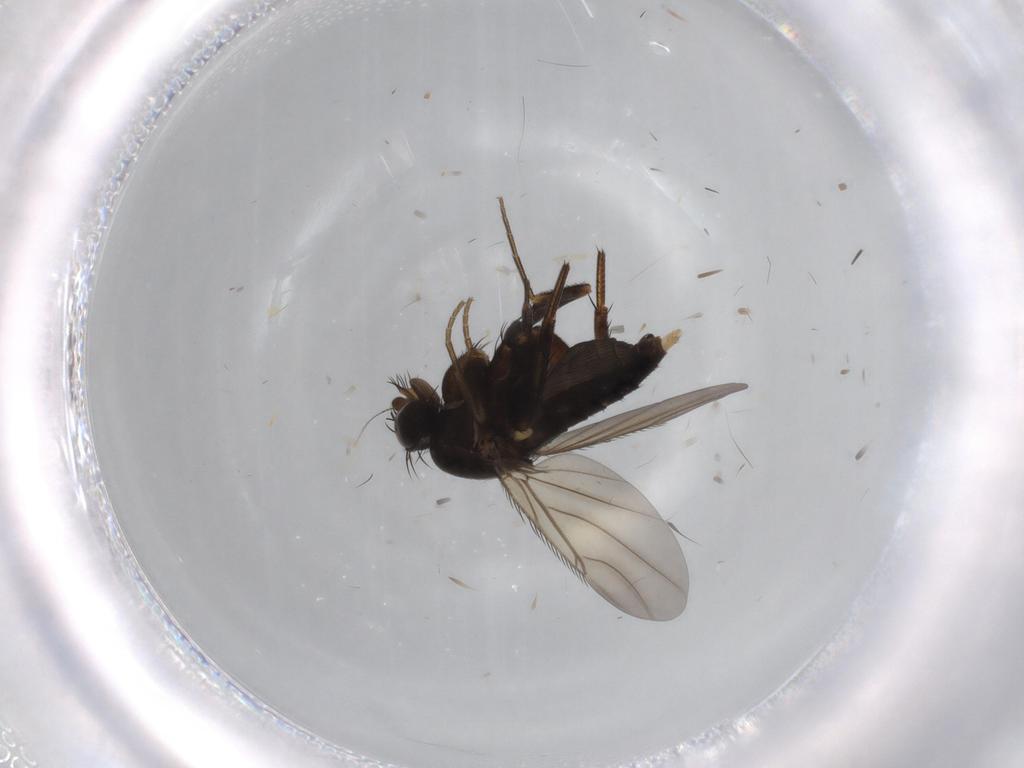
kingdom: Animalia
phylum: Arthropoda
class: Insecta
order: Diptera
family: Phoridae
